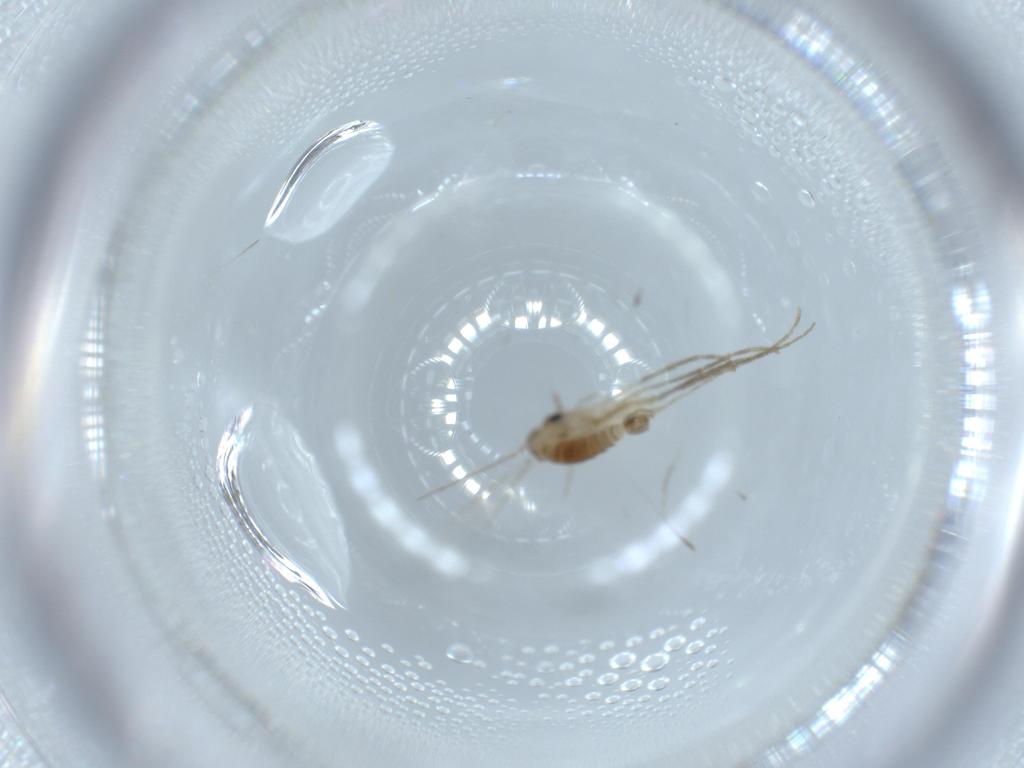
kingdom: Animalia
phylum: Arthropoda
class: Insecta
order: Diptera
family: Psychodidae
